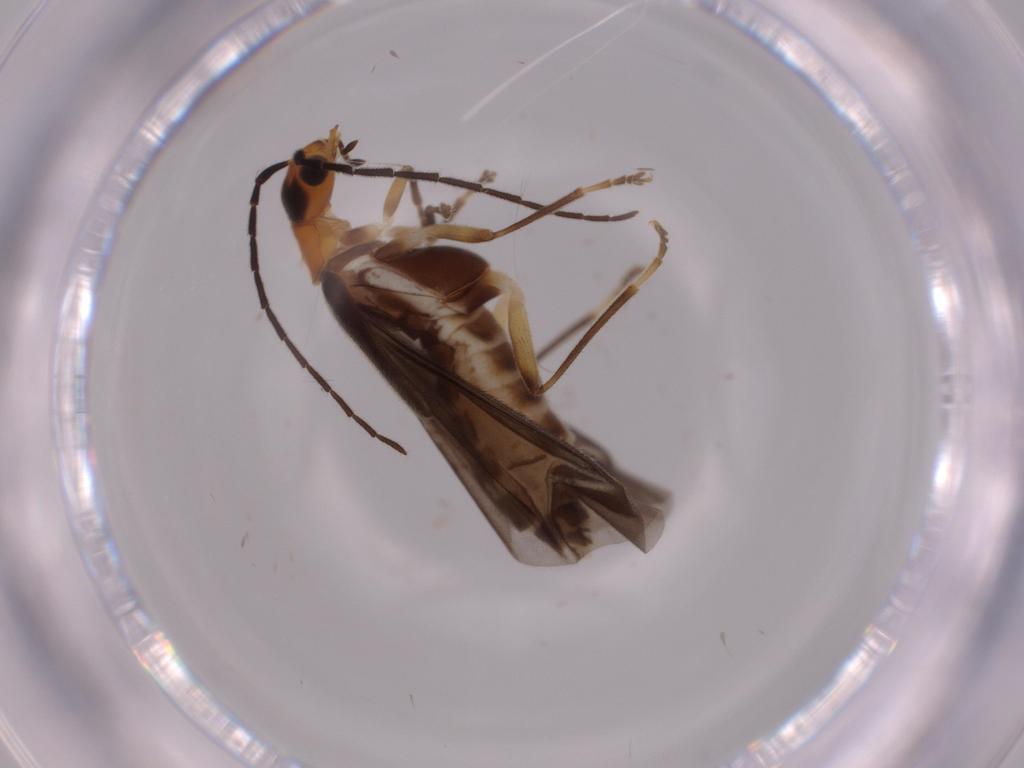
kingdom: Animalia
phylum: Arthropoda
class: Insecta
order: Coleoptera
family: Cantharidae
